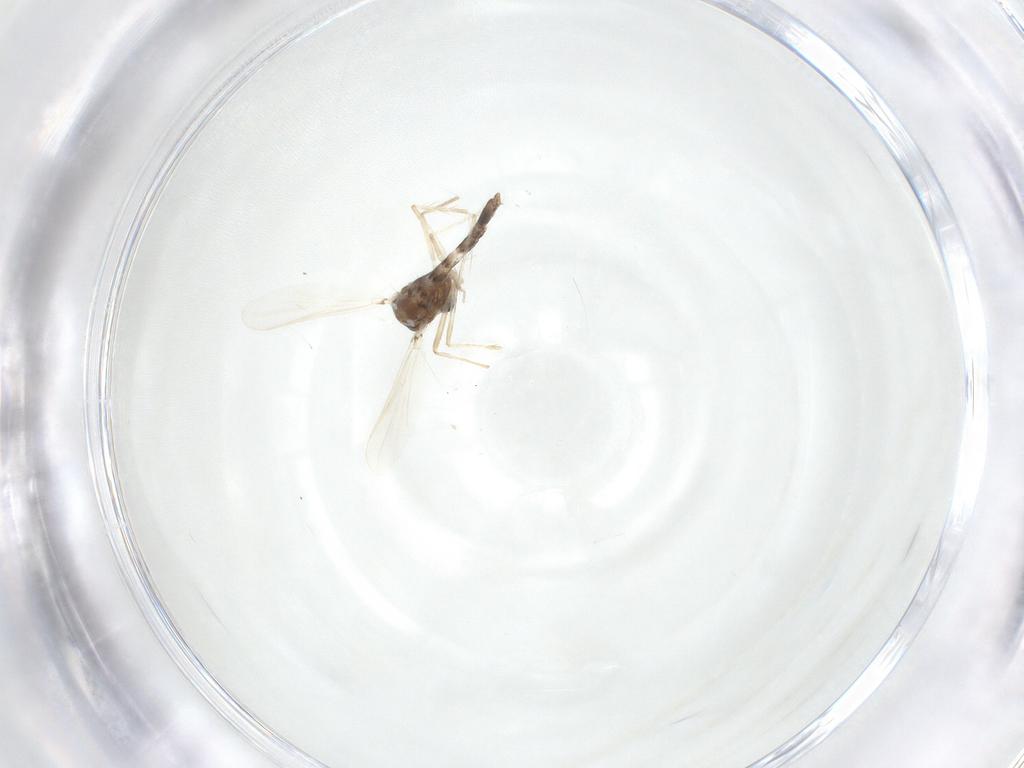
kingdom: Animalia
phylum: Arthropoda
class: Insecta
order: Diptera
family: Chironomidae
